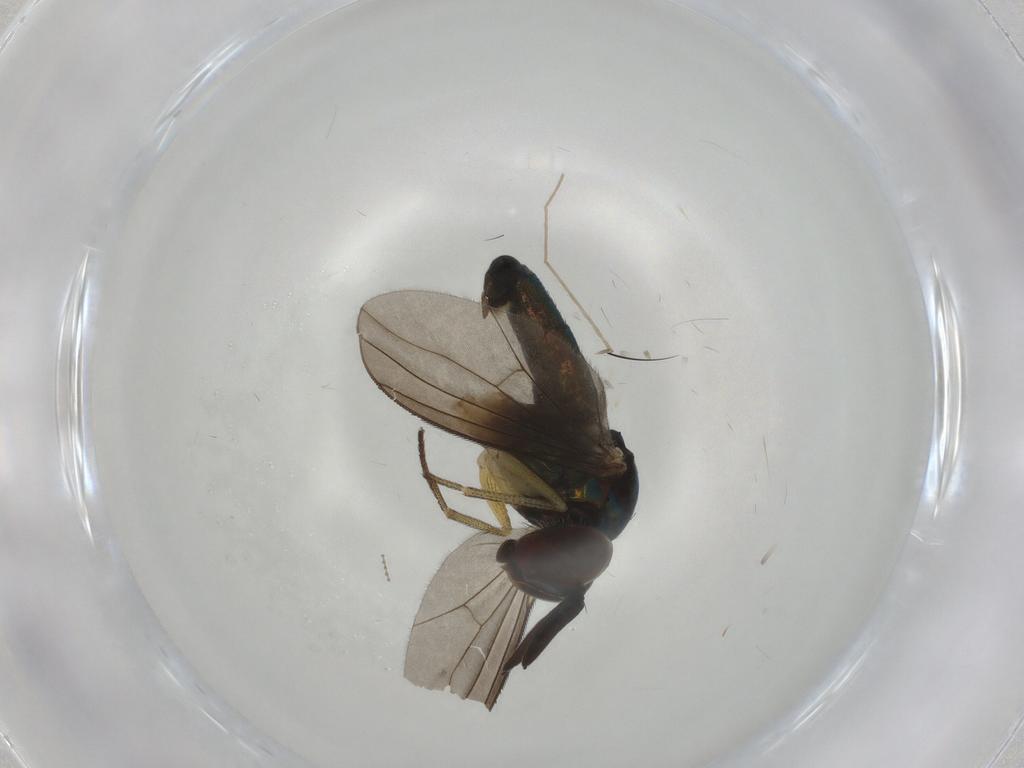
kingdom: Animalia
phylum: Arthropoda
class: Insecta
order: Diptera
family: Dolichopodidae
